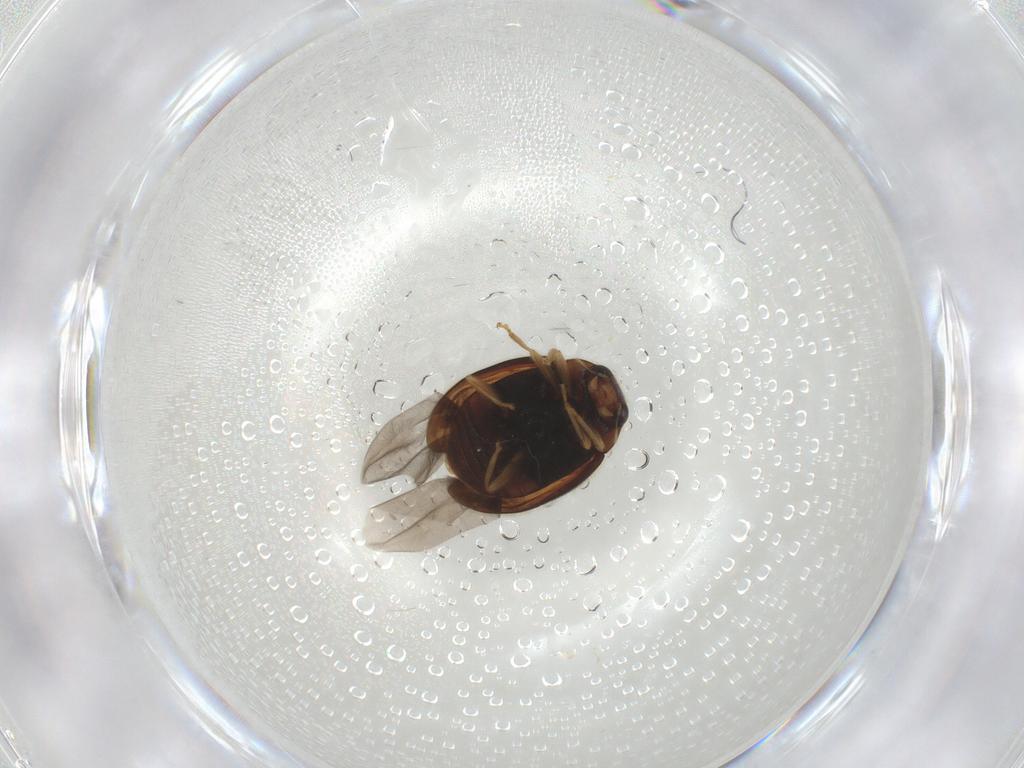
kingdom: Animalia
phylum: Arthropoda
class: Insecta
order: Coleoptera
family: Coccinellidae
